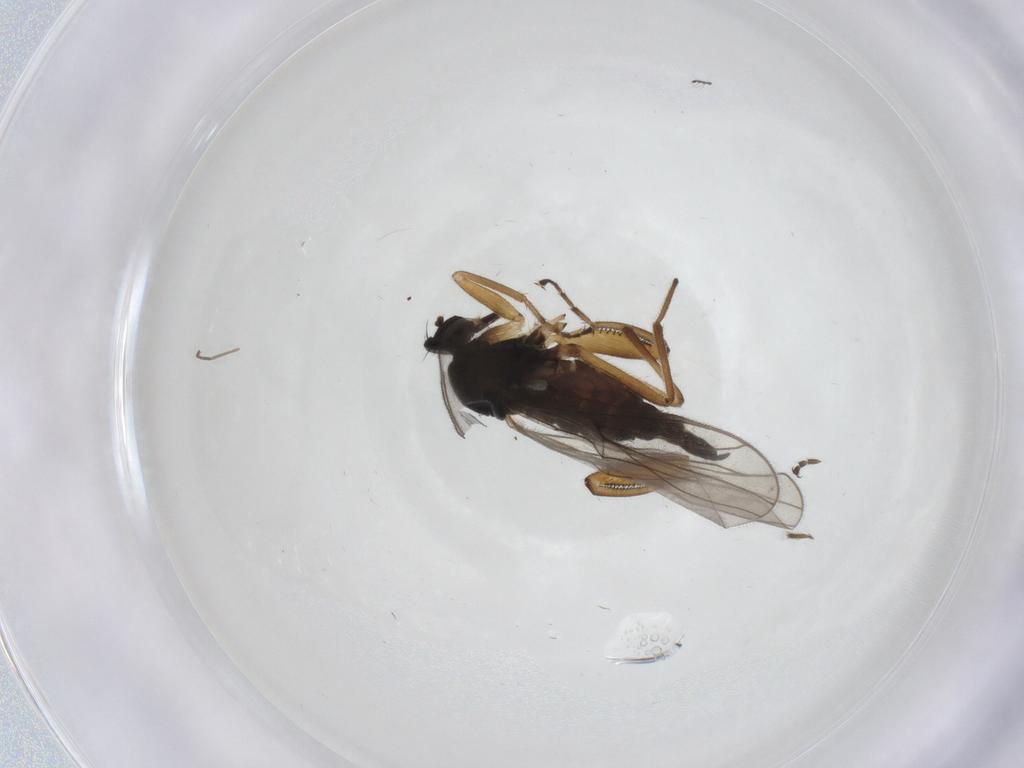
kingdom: Animalia
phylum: Arthropoda
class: Insecta
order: Diptera
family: Hybotidae
